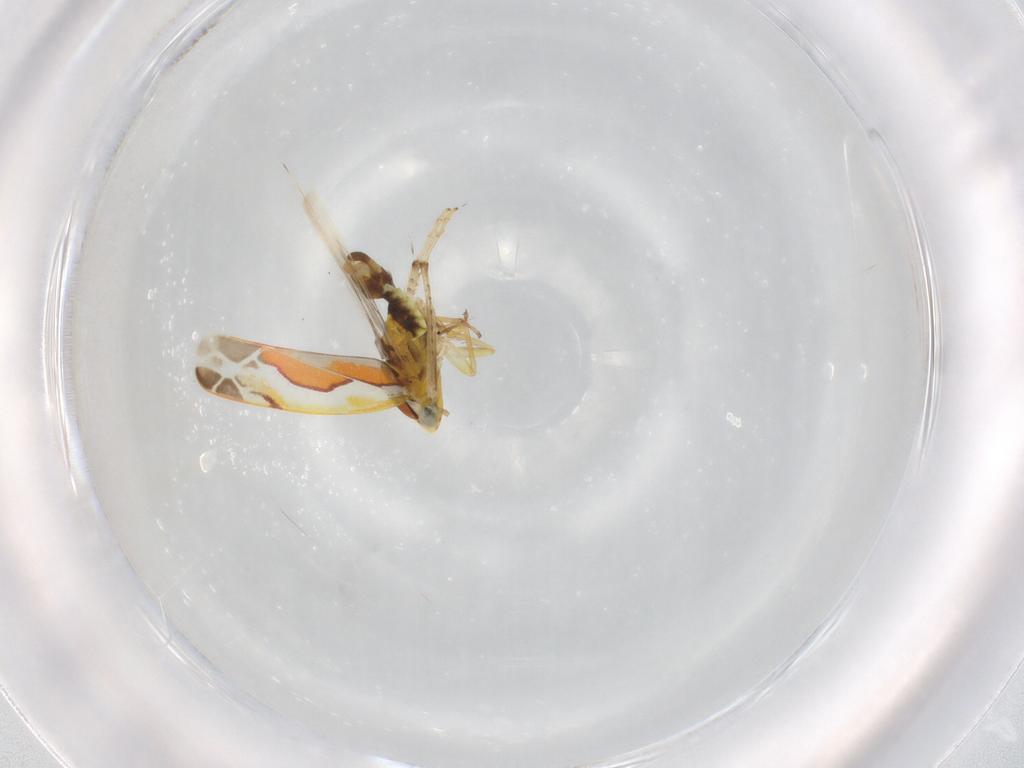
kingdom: Animalia
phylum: Arthropoda
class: Insecta
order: Hemiptera
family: Cicadellidae
